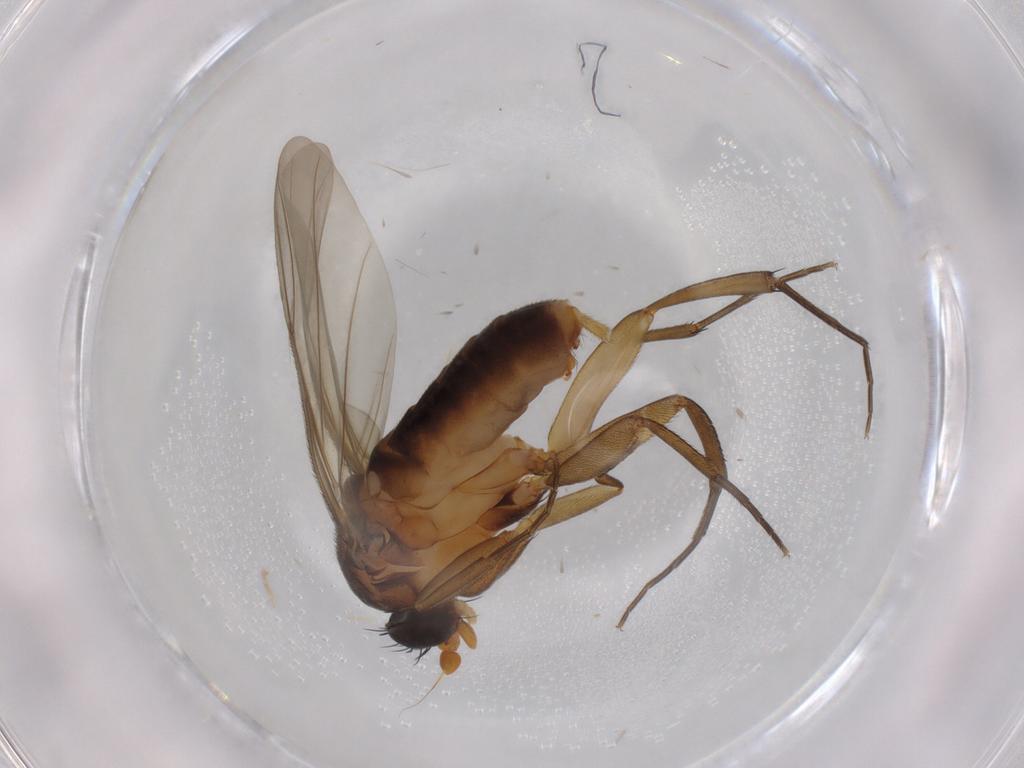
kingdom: Animalia
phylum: Arthropoda
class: Insecta
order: Diptera
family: Phoridae
